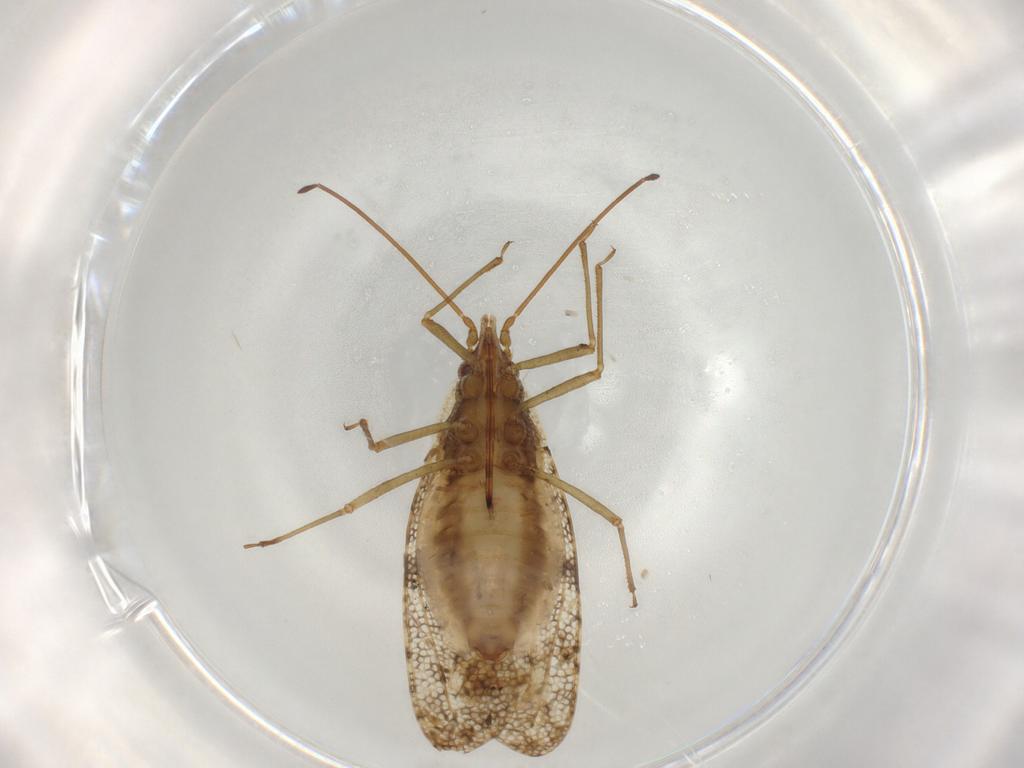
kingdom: Animalia
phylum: Arthropoda
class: Insecta
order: Hemiptera
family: Tingidae
